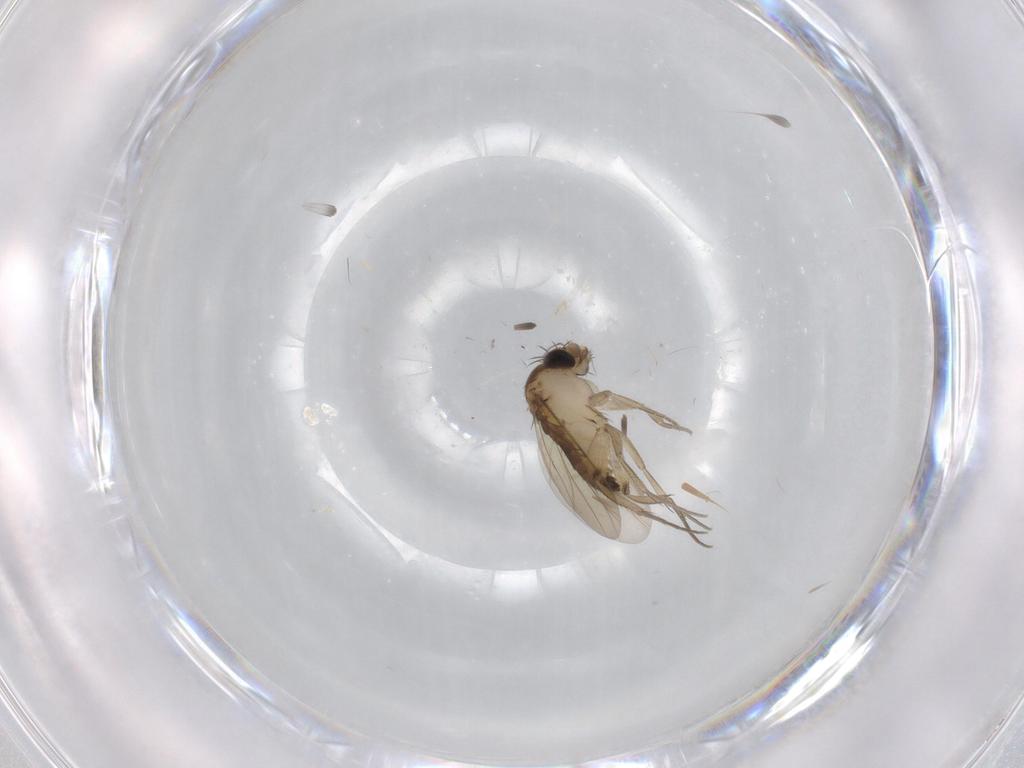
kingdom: Animalia
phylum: Arthropoda
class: Insecta
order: Diptera
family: Phoridae
